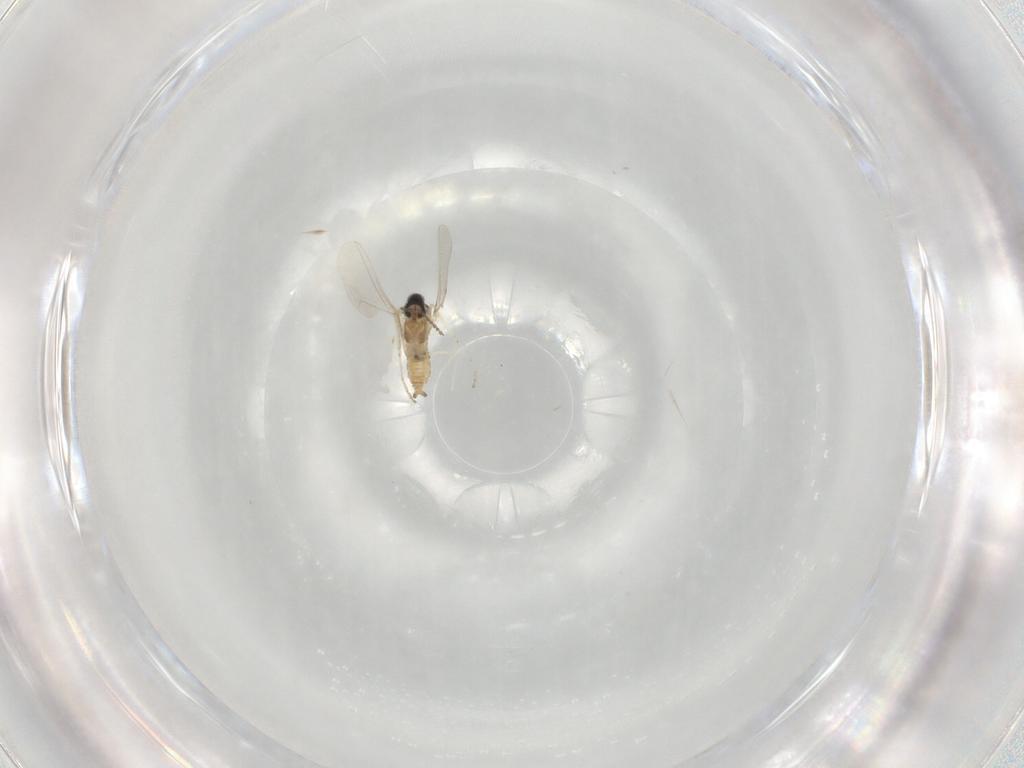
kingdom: Animalia
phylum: Arthropoda
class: Insecta
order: Diptera
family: Cecidomyiidae
